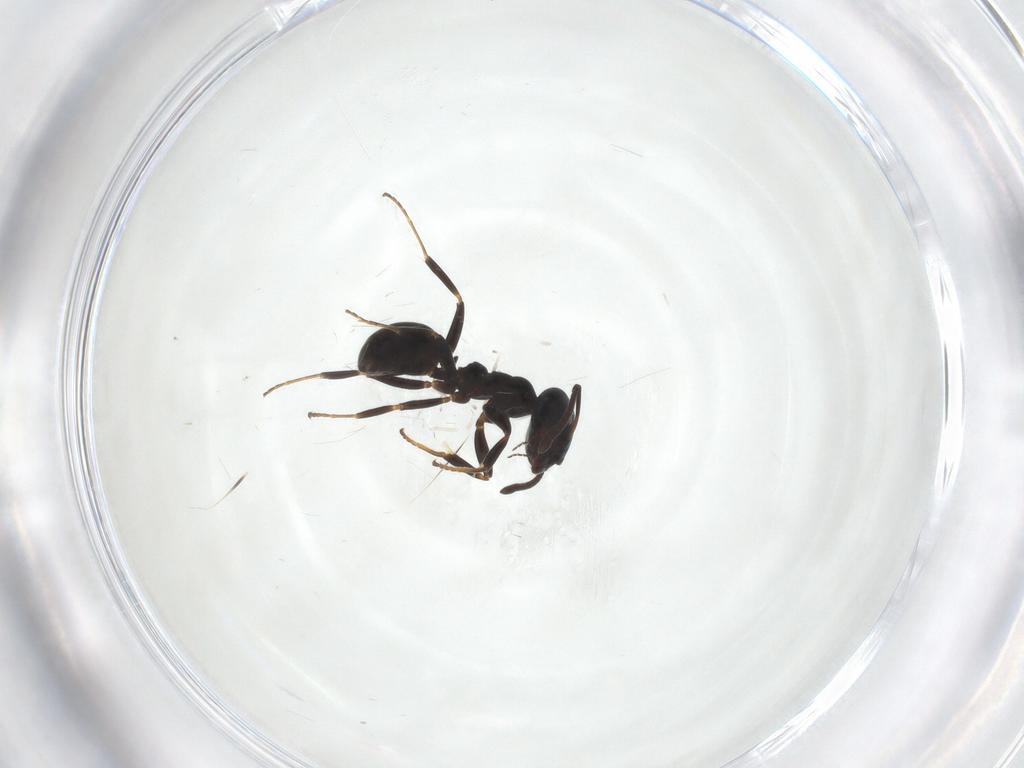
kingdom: Animalia
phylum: Arthropoda
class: Insecta
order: Hymenoptera
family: Formicidae
